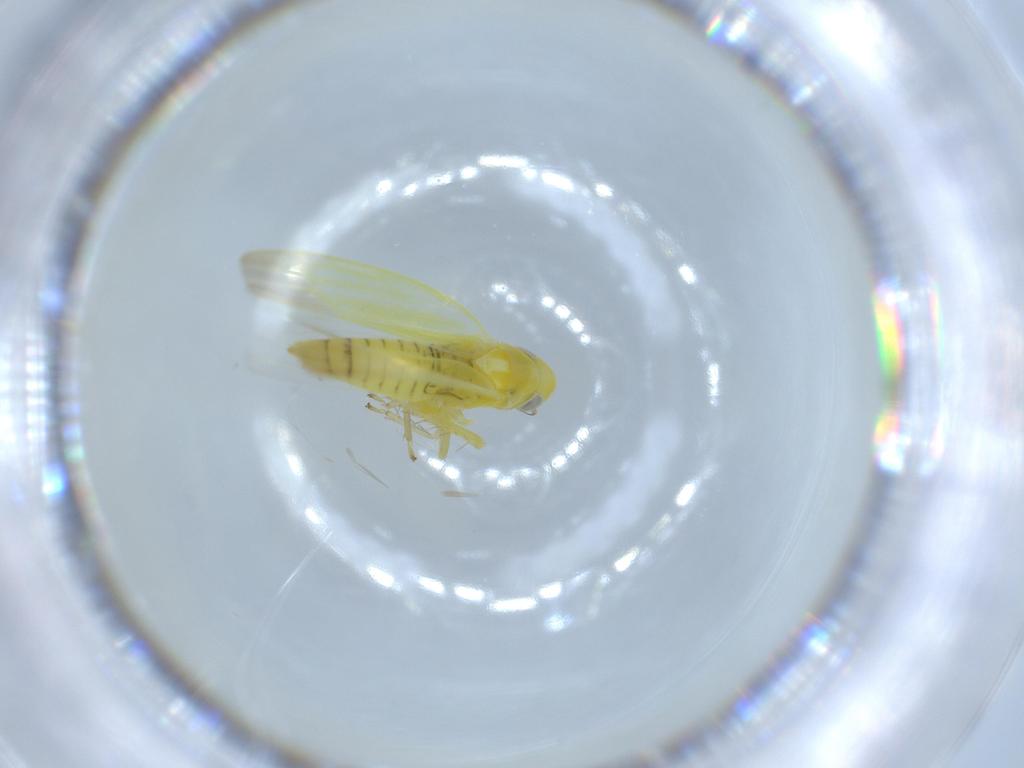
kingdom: Animalia
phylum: Arthropoda
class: Insecta
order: Hemiptera
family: Cicadellidae
